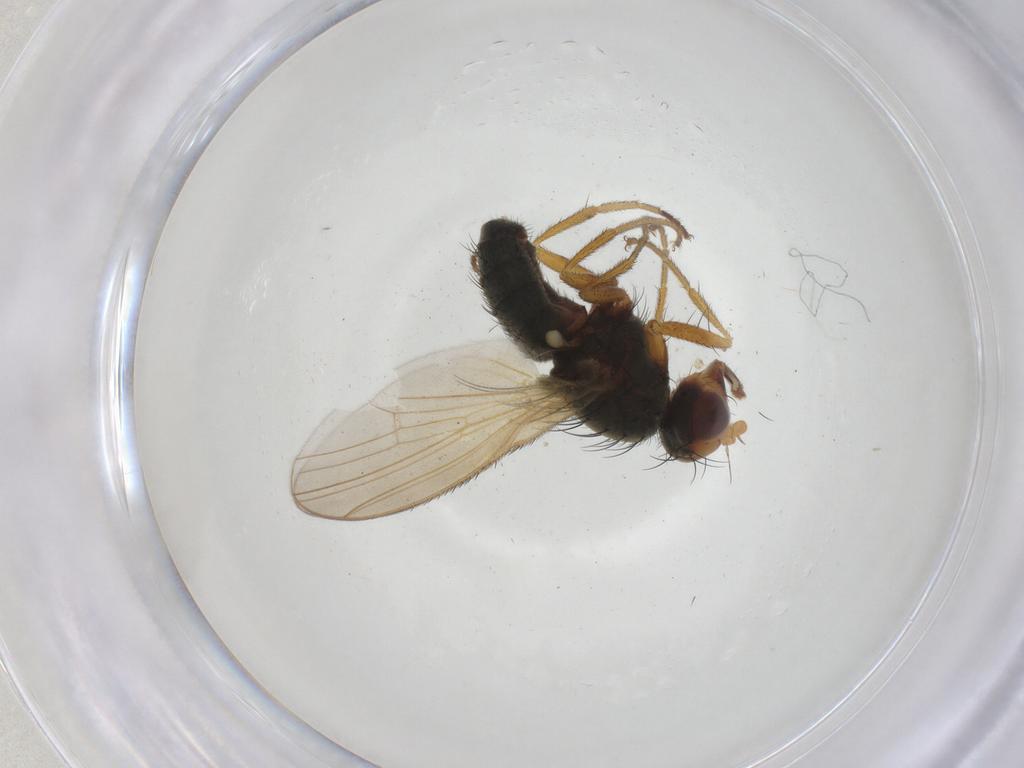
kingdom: Animalia
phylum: Arthropoda
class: Insecta
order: Diptera
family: Heleomyzidae
